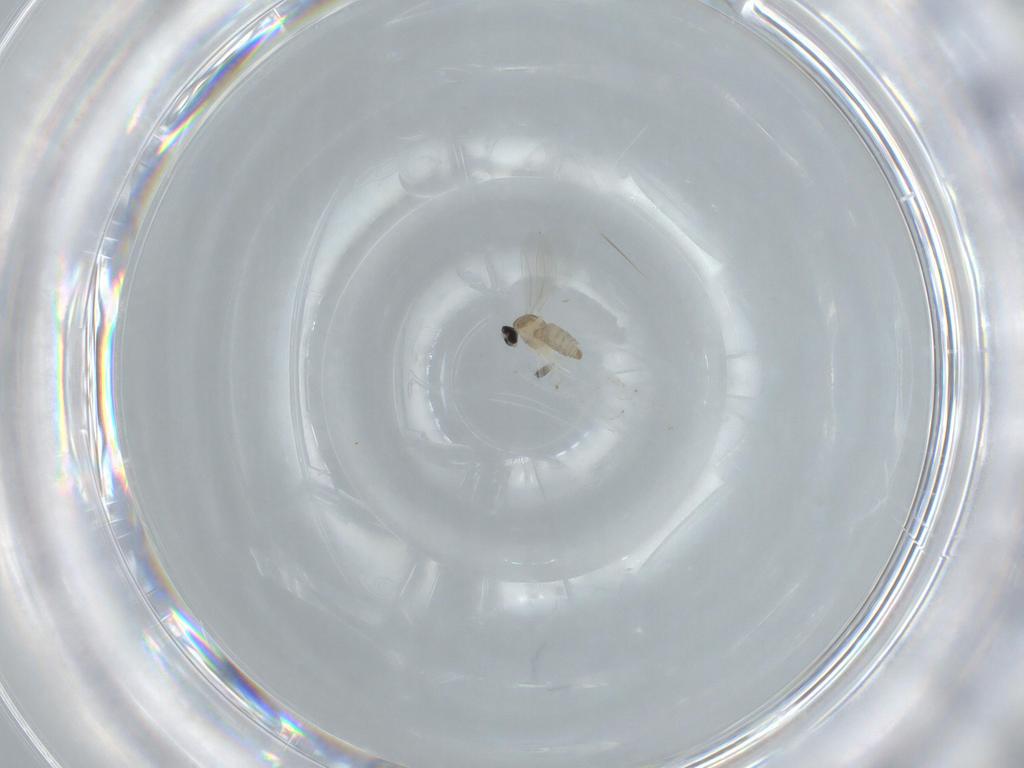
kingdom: Animalia
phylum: Arthropoda
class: Insecta
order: Diptera
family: Cecidomyiidae
